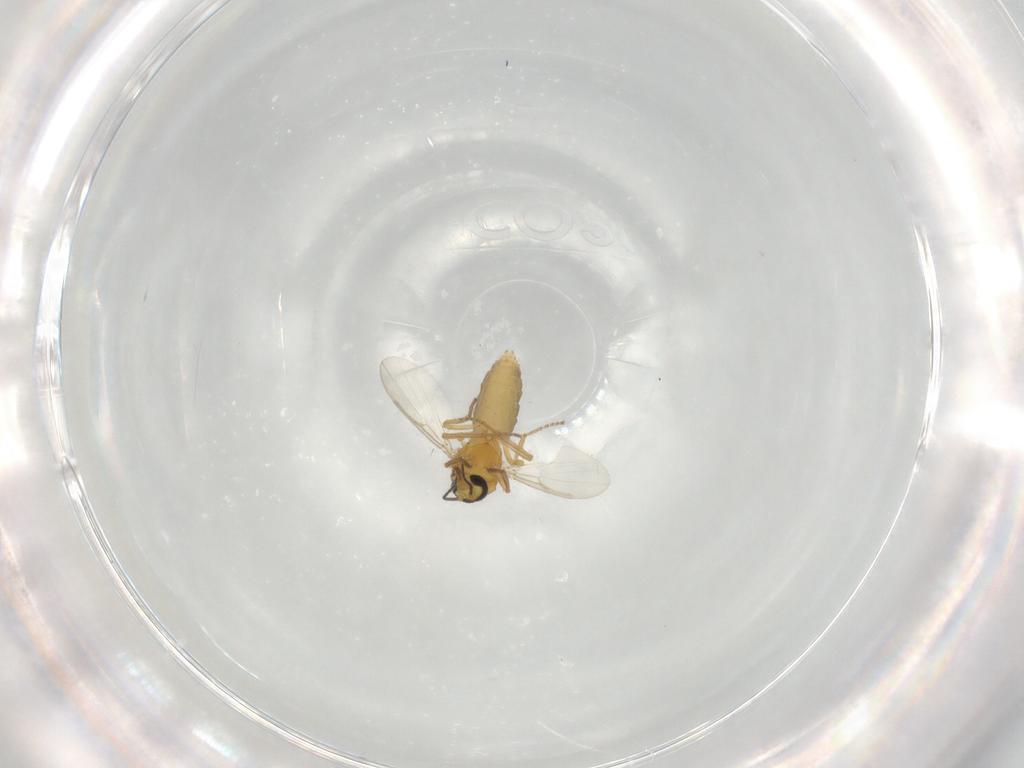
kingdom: Animalia
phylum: Arthropoda
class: Insecta
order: Diptera
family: Ceratopogonidae
